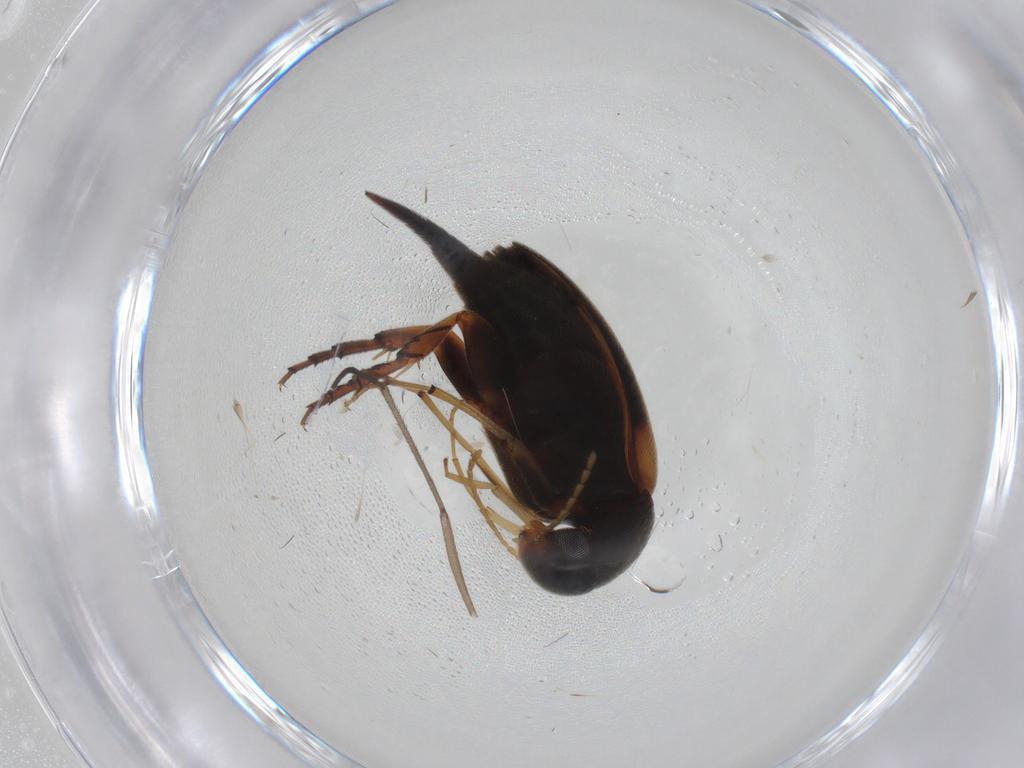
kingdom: Animalia
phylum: Arthropoda
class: Insecta
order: Coleoptera
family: Mordellidae
